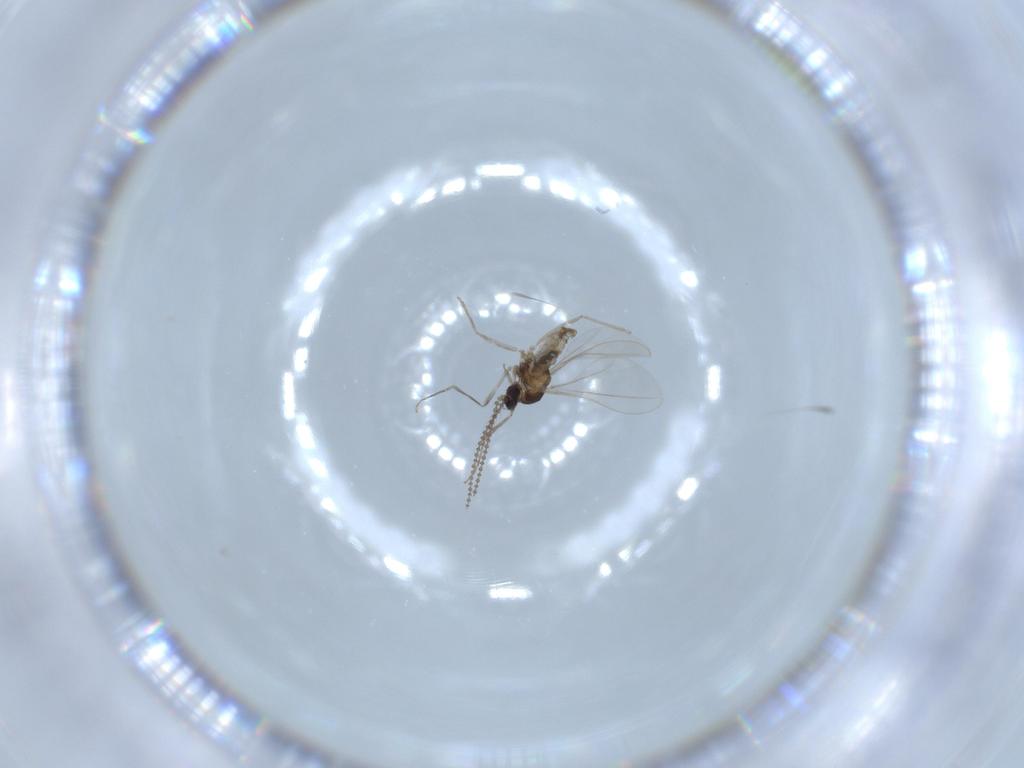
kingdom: Animalia
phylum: Arthropoda
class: Insecta
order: Diptera
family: Cecidomyiidae
